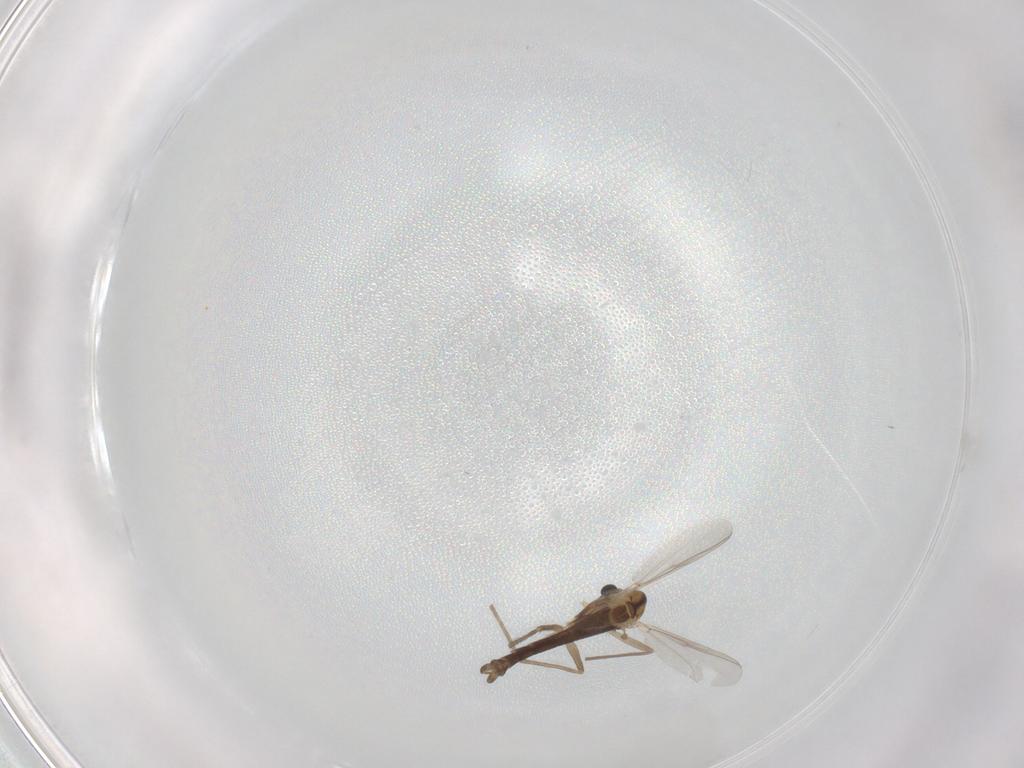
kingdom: Animalia
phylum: Arthropoda
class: Insecta
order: Diptera
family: Chironomidae
